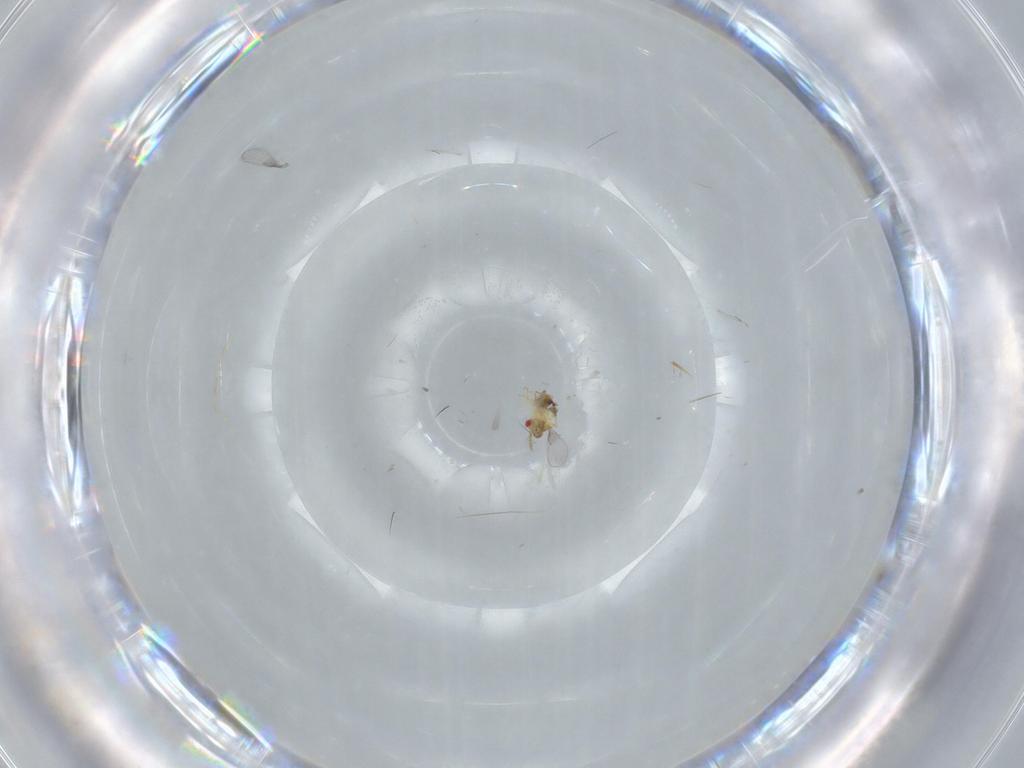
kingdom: Animalia
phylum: Arthropoda
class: Insecta
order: Hymenoptera
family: Trichogrammatidae
